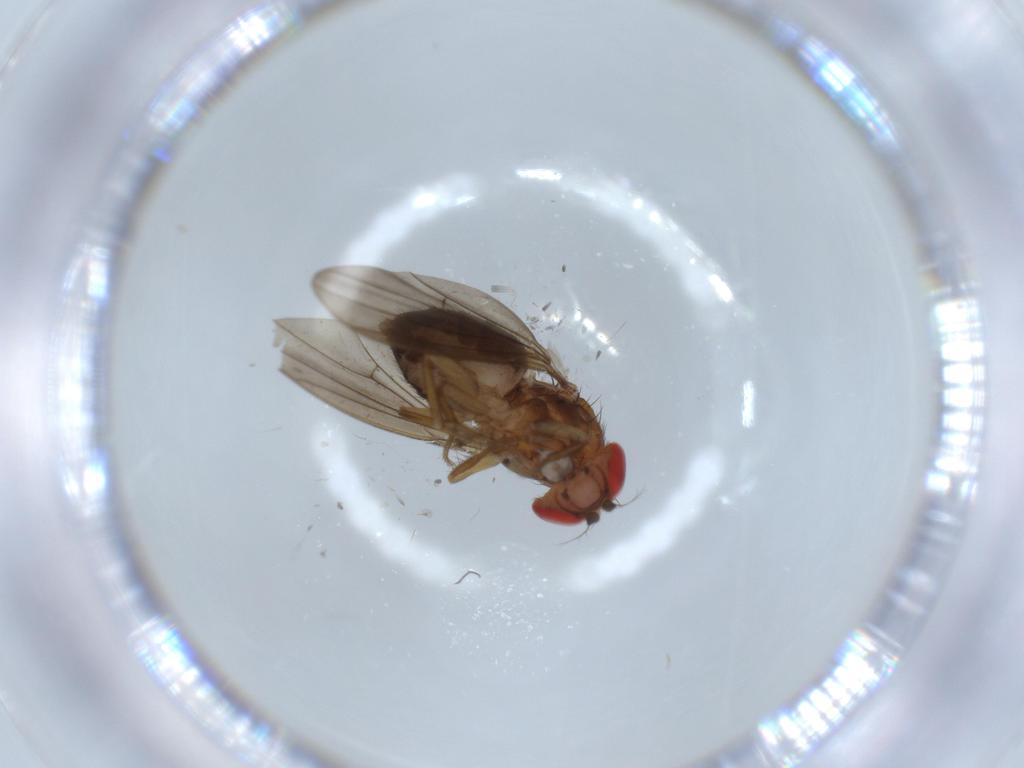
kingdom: Animalia
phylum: Arthropoda
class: Insecta
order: Diptera
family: Drosophilidae
